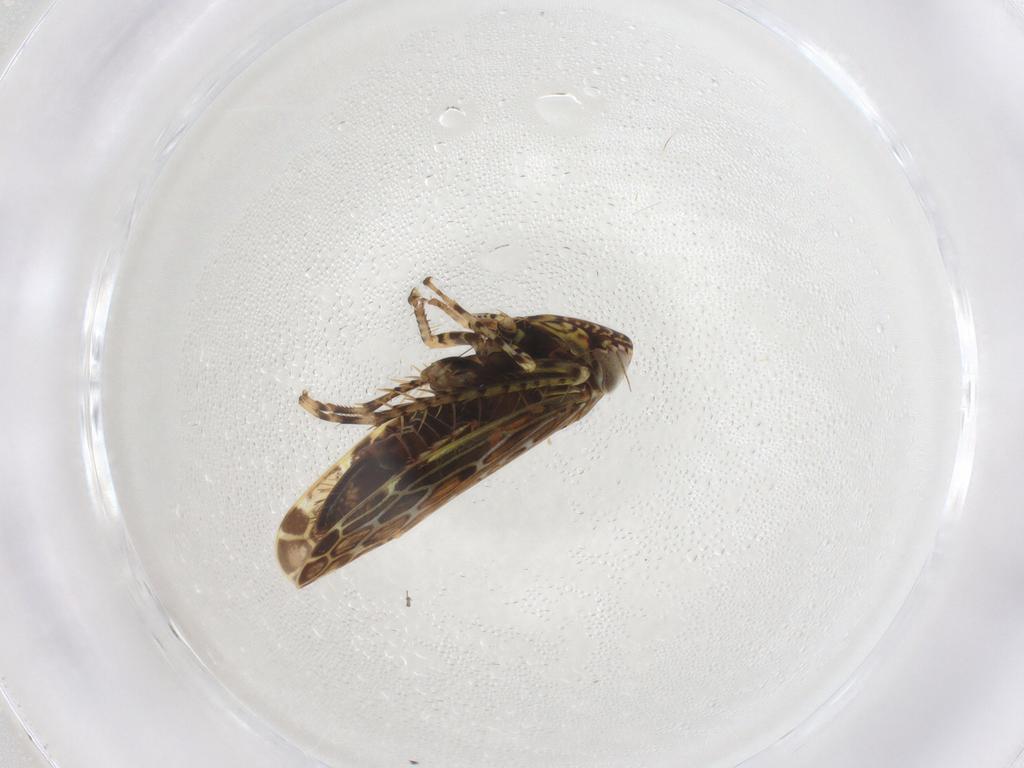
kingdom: Animalia
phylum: Arthropoda
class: Insecta
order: Hemiptera
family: Cicadellidae
